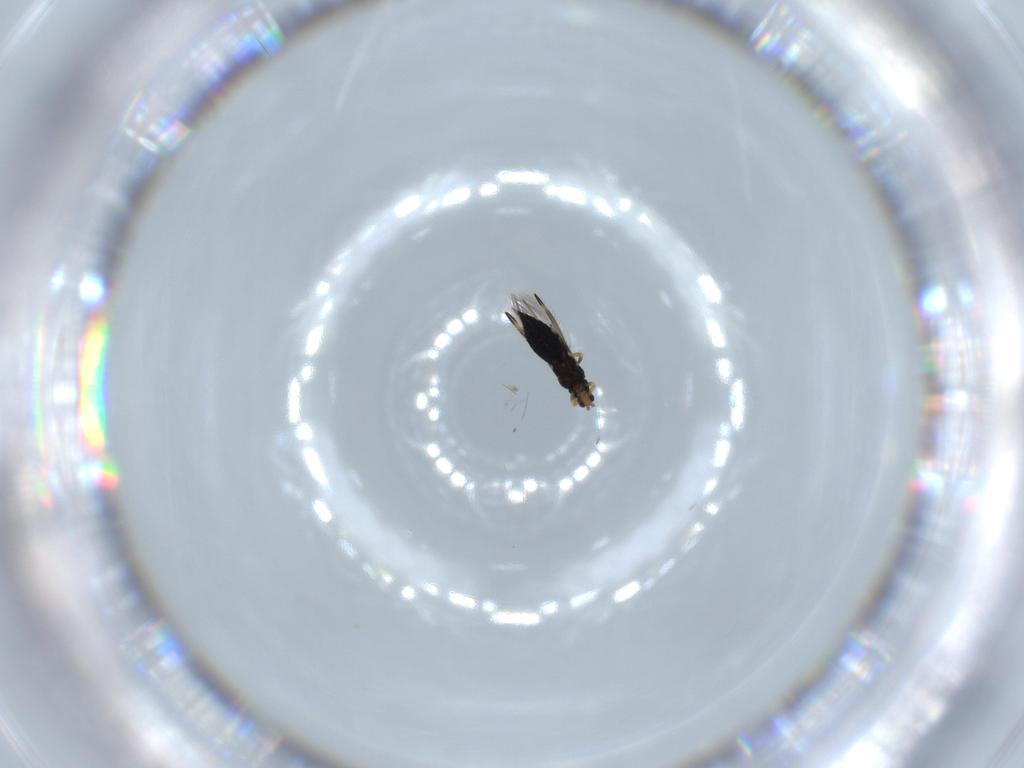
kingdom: Animalia
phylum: Arthropoda
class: Insecta
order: Thysanoptera
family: Thripidae
